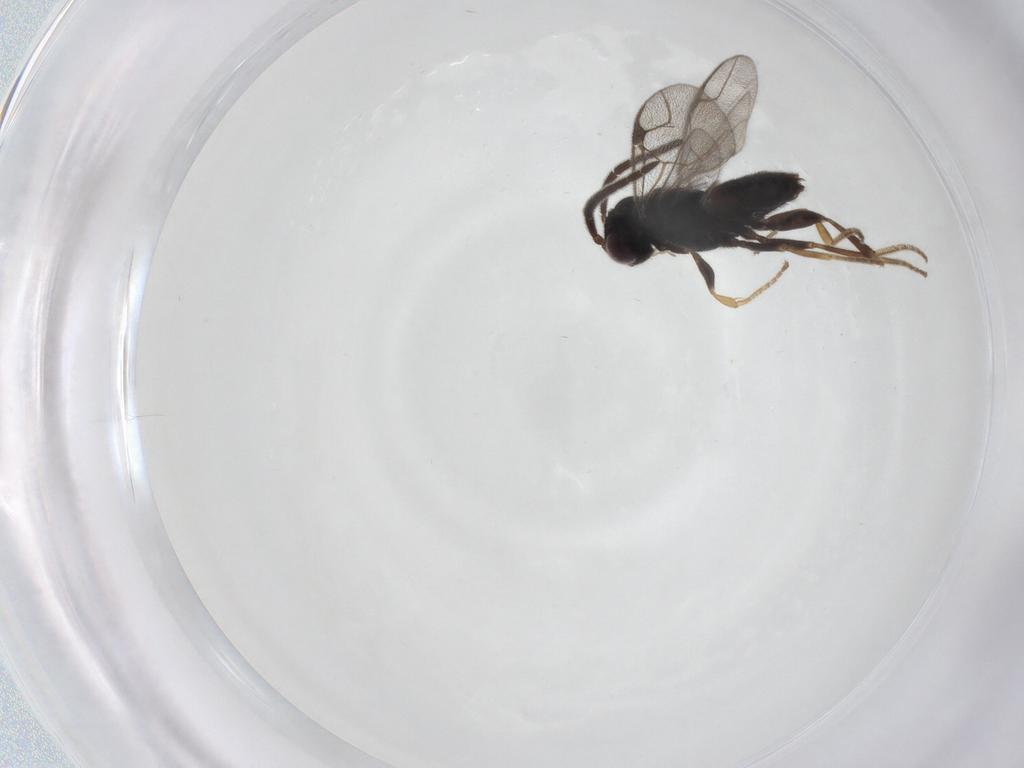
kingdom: Animalia
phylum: Arthropoda
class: Insecta
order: Hymenoptera
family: Dryinidae
